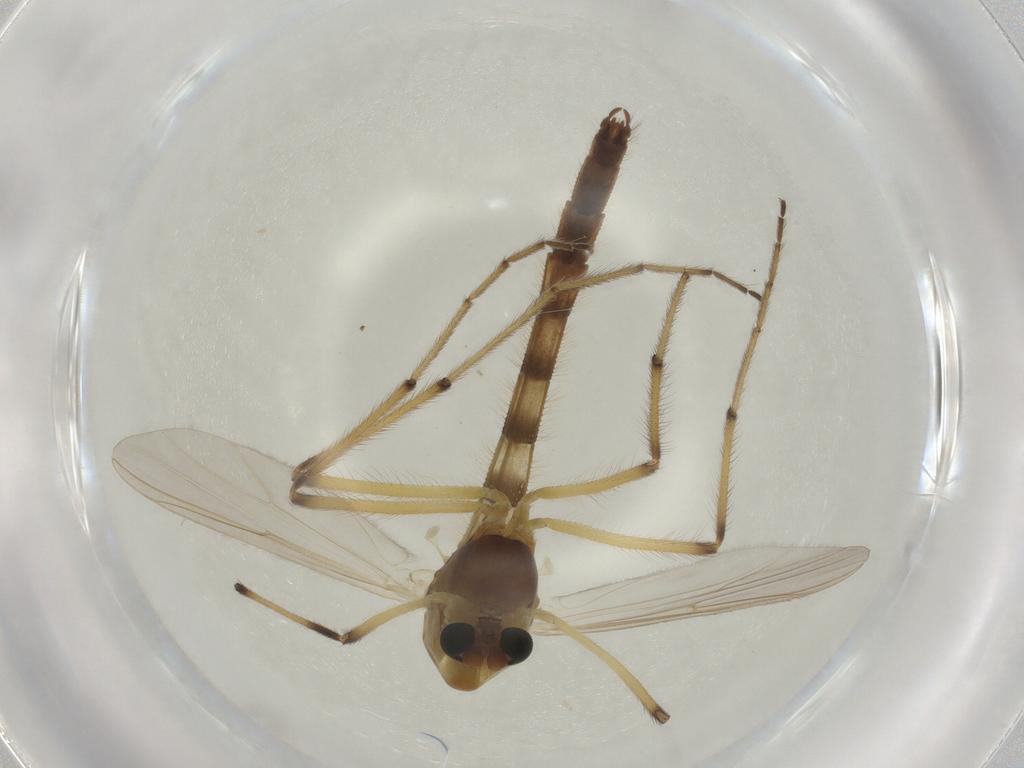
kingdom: Animalia
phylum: Arthropoda
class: Insecta
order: Diptera
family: Chironomidae
